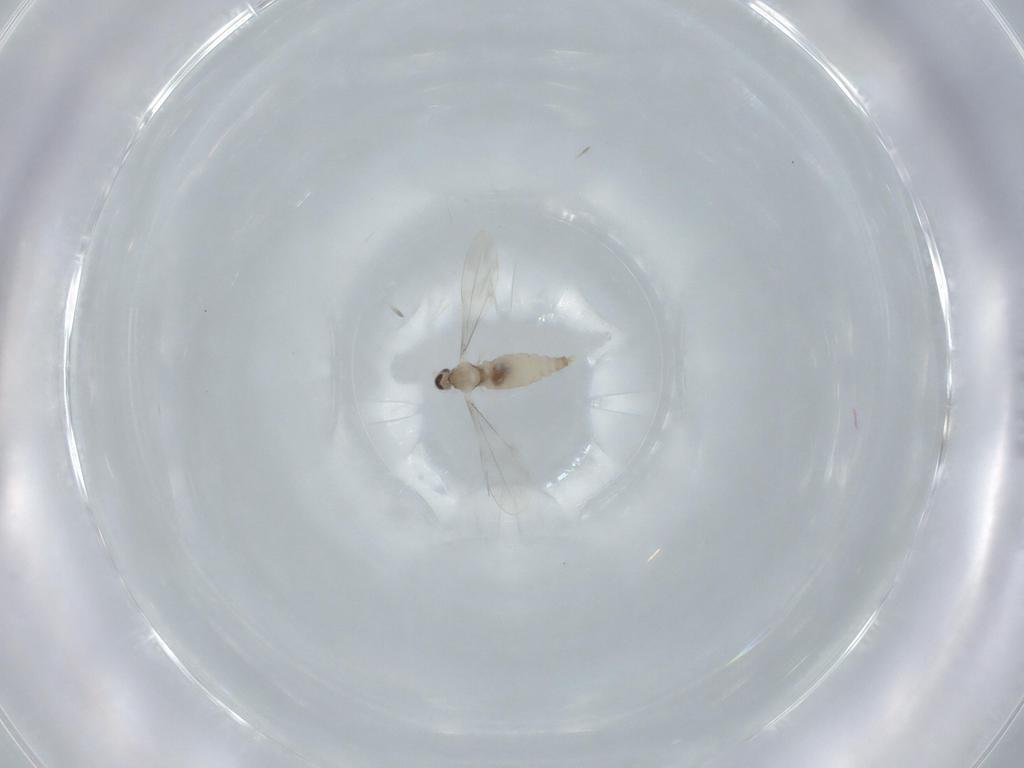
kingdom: Animalia
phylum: Arthropoda
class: Insecta
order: Diptera
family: Cecidomyiidae
